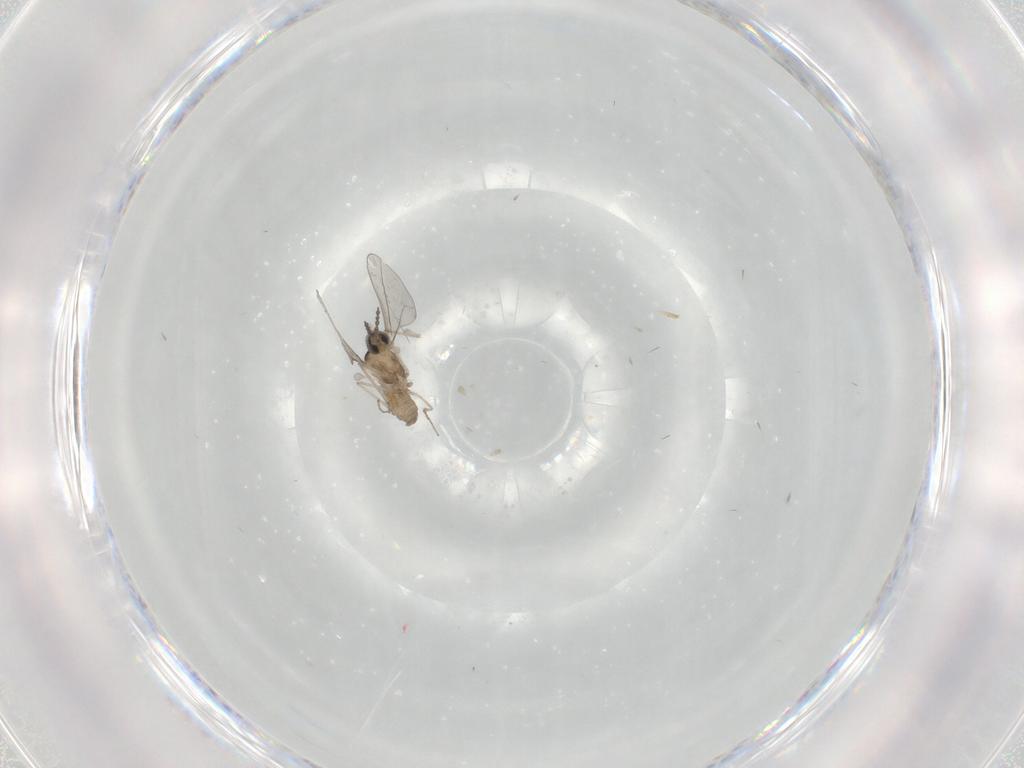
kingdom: Animalia
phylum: Arthropoda
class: Insecta
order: Diptera
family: Cecidomyiidae
